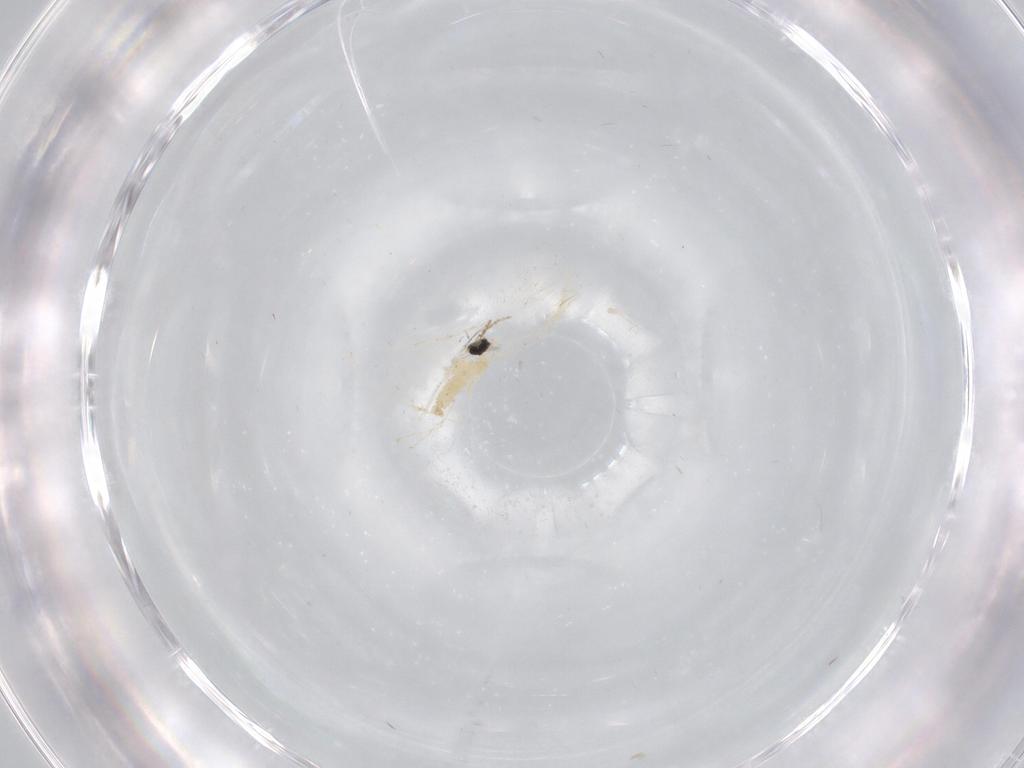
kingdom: Animalia
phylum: Arthropoda
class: Insecta
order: Diptera
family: Cecidomyiidae
